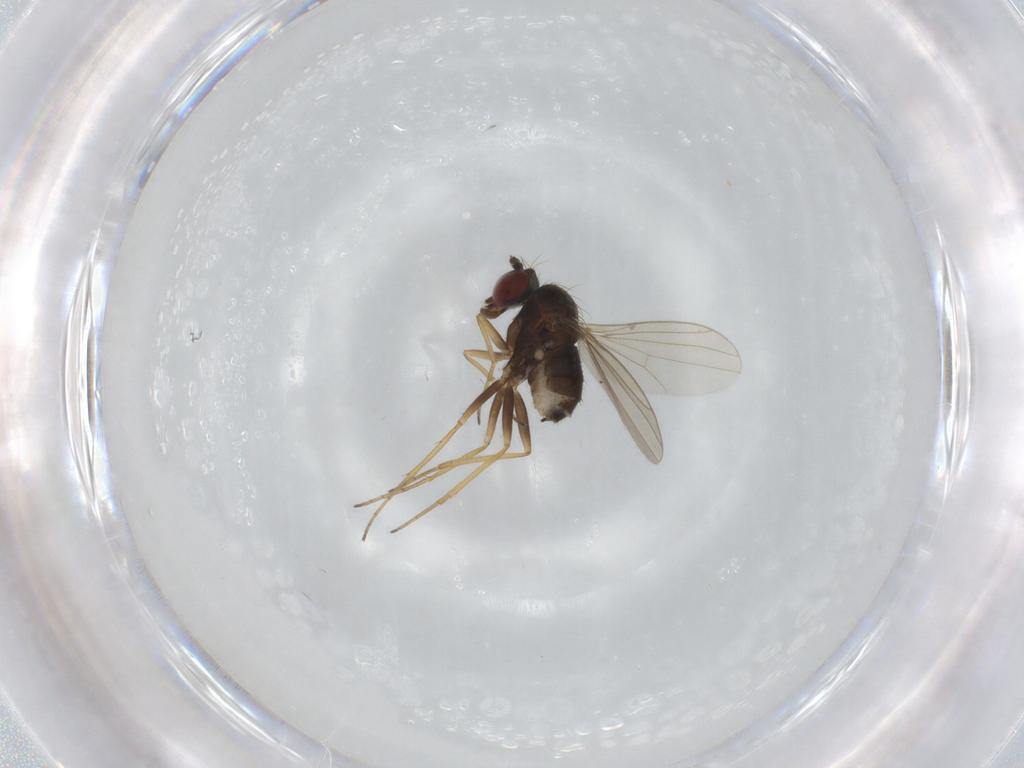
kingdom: Animalia
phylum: Arthropoda
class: Insecta
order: Diptera
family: Dolichopodidae
